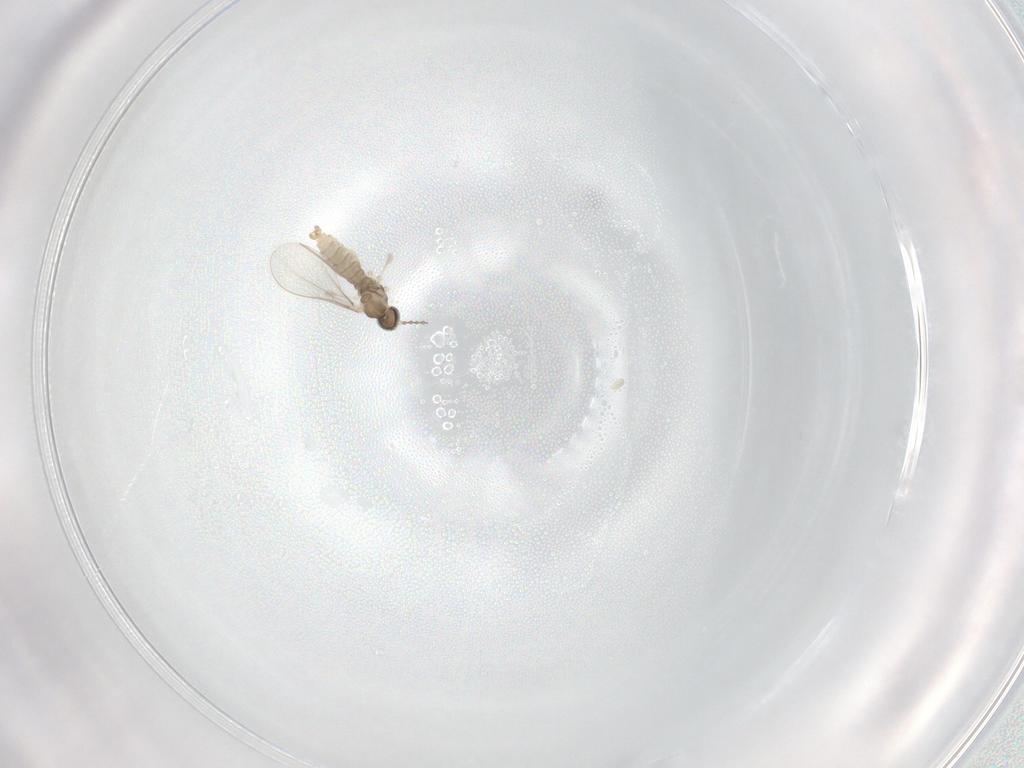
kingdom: Animalia
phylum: Arthropoda
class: Insecta
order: Diptera
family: Cecidomyiidae
